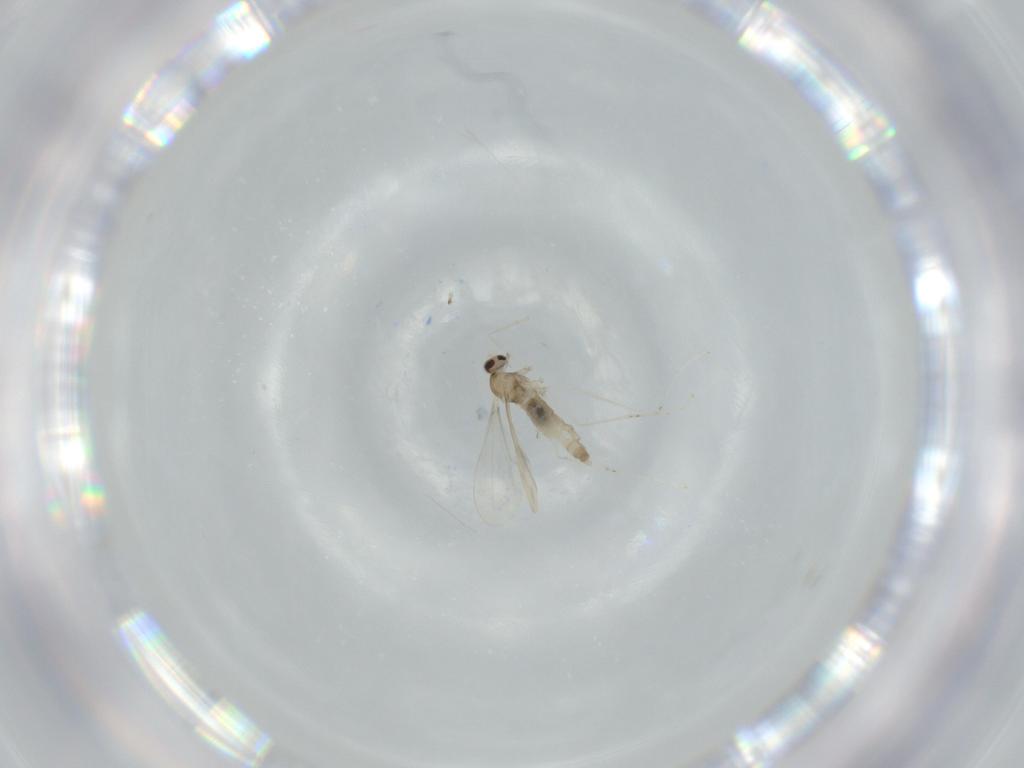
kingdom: Animalia
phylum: Arthropoda
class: Insecta
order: Diptera
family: Cecidomyiidae
